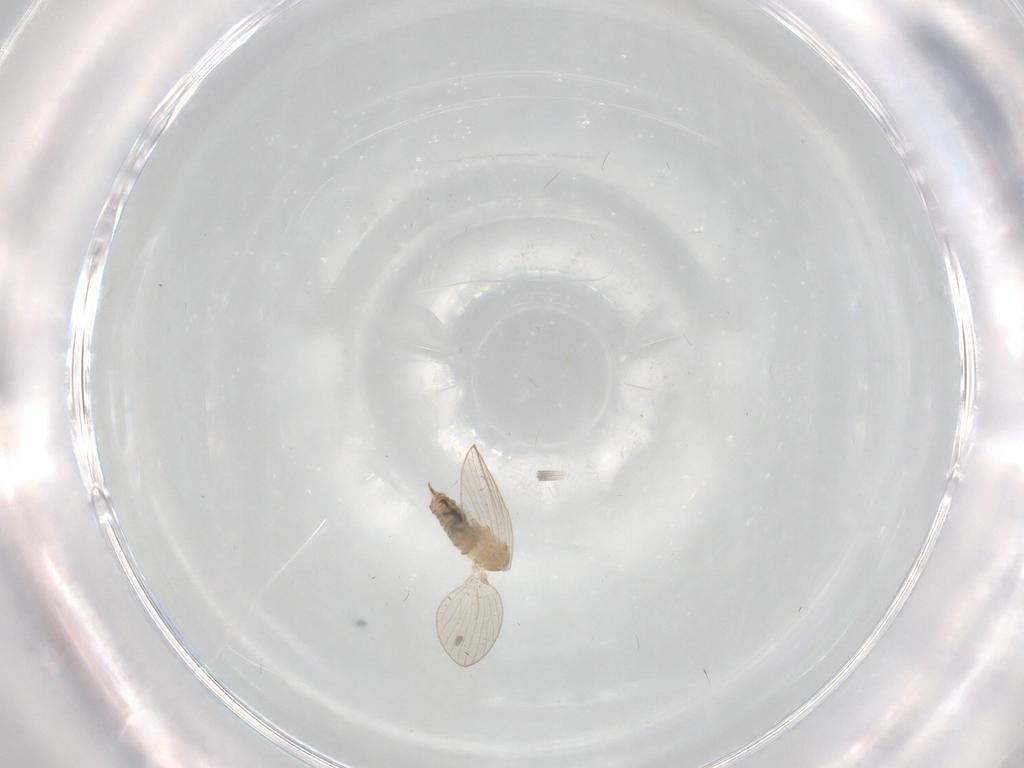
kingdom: Animalia
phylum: Arthropoda
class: Insecta
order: Diptera
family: Psychodidae
